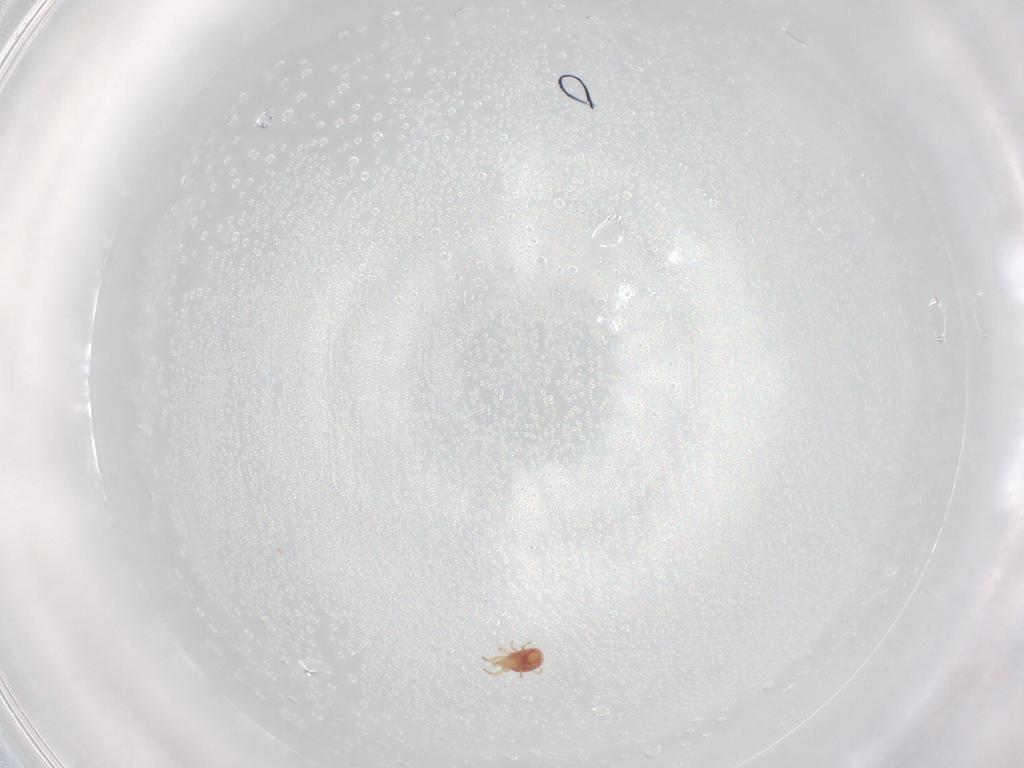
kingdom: Animalia
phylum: Arthropoda
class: Arachnida
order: Mesostigmata
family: Phytoseiidae
